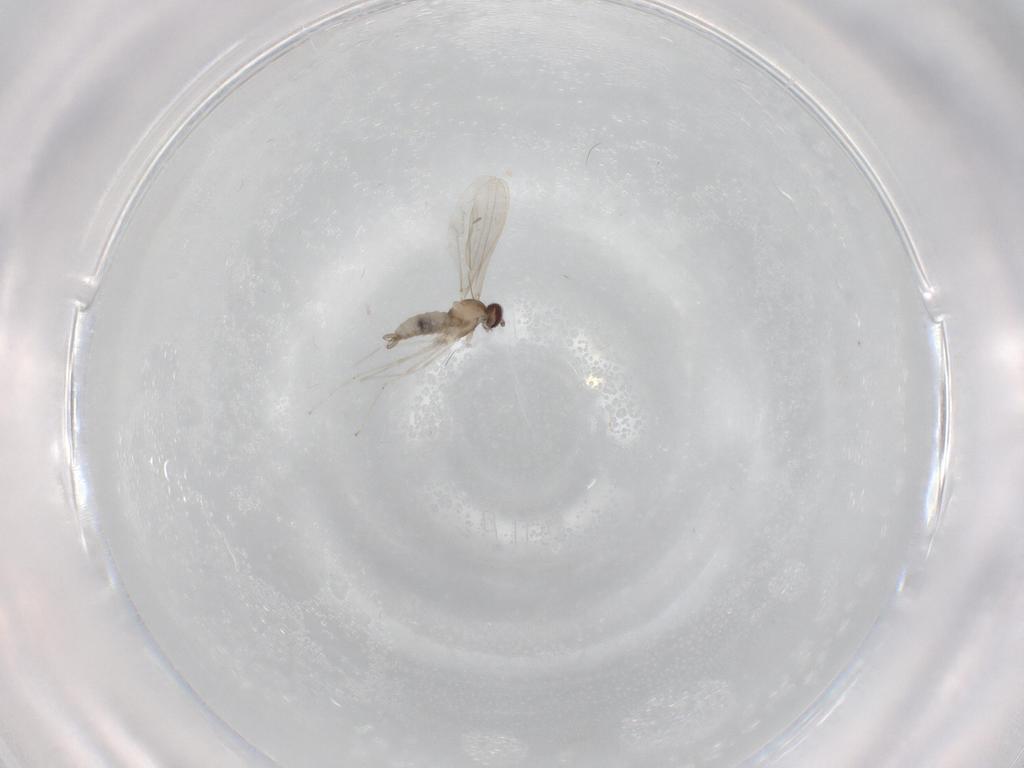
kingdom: Animalia
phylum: Arthropoda
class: Insecta
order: Diptera
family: Cecidomyiidae
